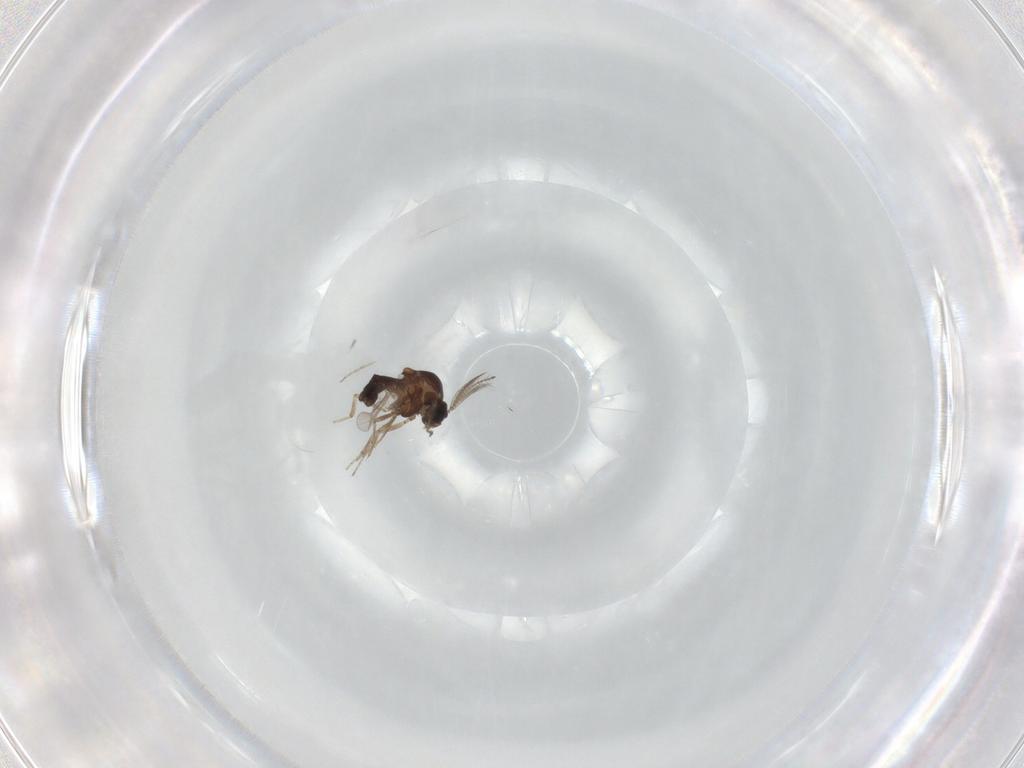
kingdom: Animalia
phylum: Arthropoda
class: Insecta
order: Diptera
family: Ceratopogonidae
